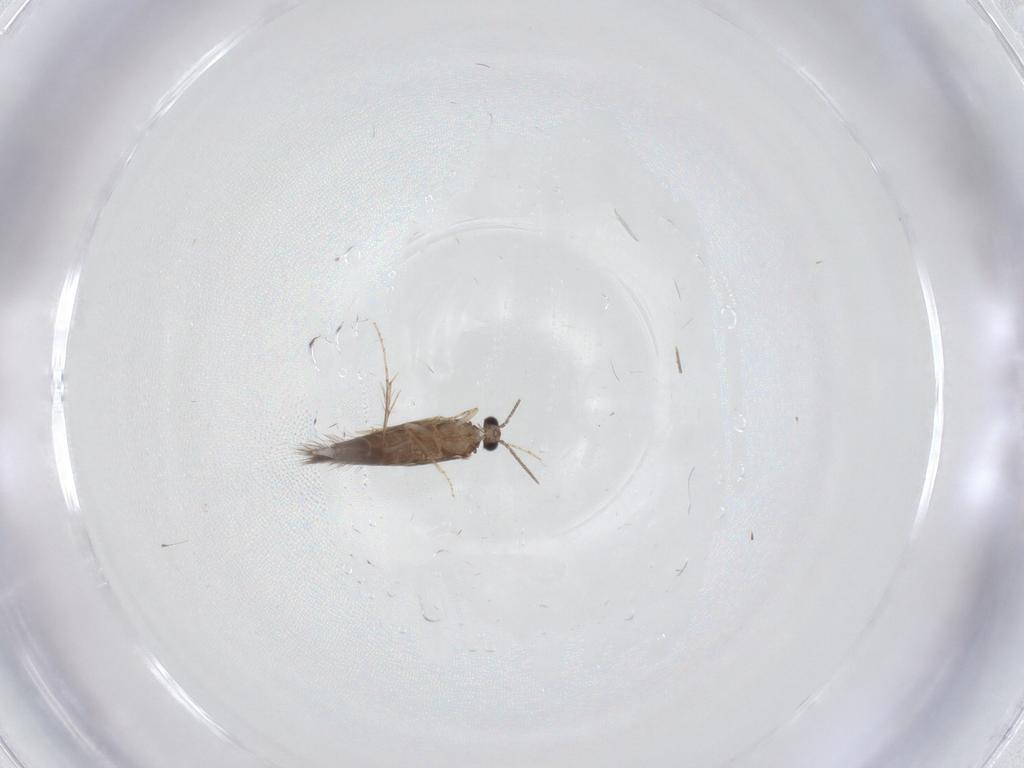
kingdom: Animalia
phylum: Arthropoda
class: Insecta
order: Trichoptera
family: Hydroptilidae
